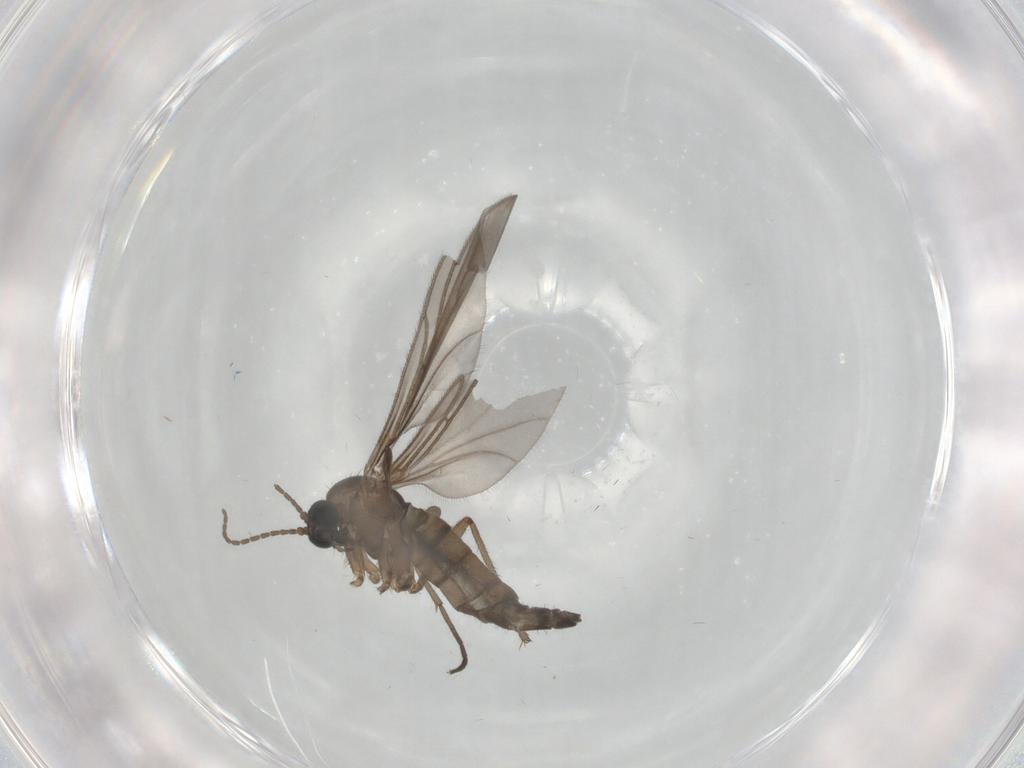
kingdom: Animalia
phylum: Arthropoda
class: Insecta
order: Diptera
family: Sciaridae
